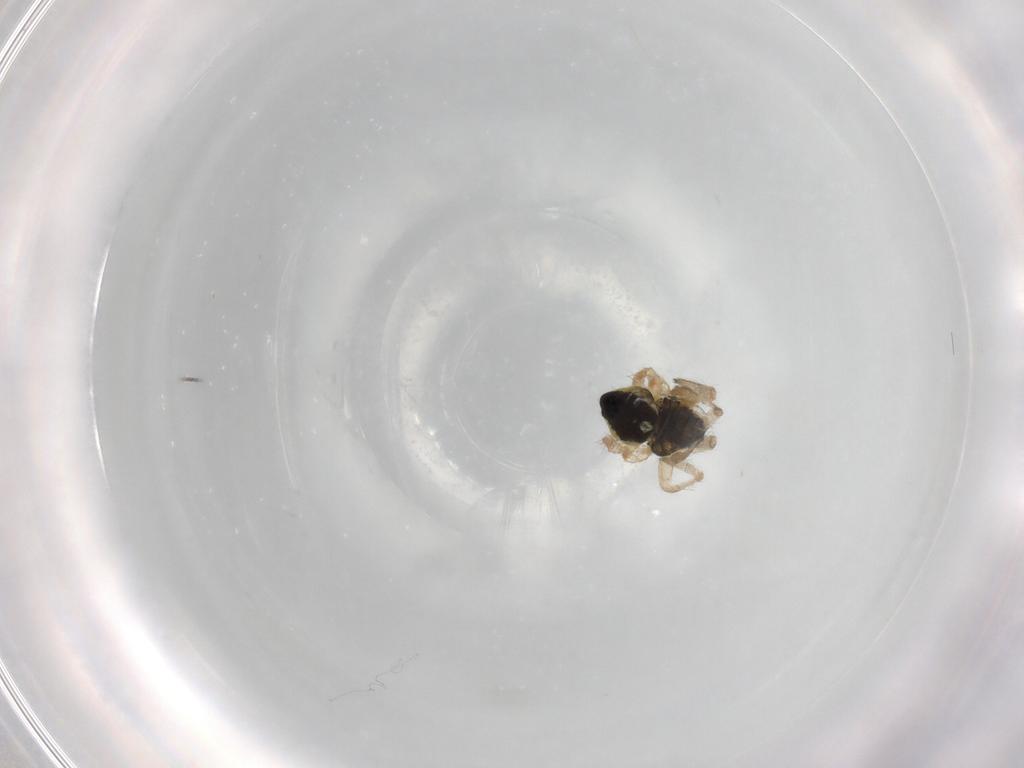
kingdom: Animalia
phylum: Arthropoda
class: Arachnida
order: Araneae
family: Araneidae
